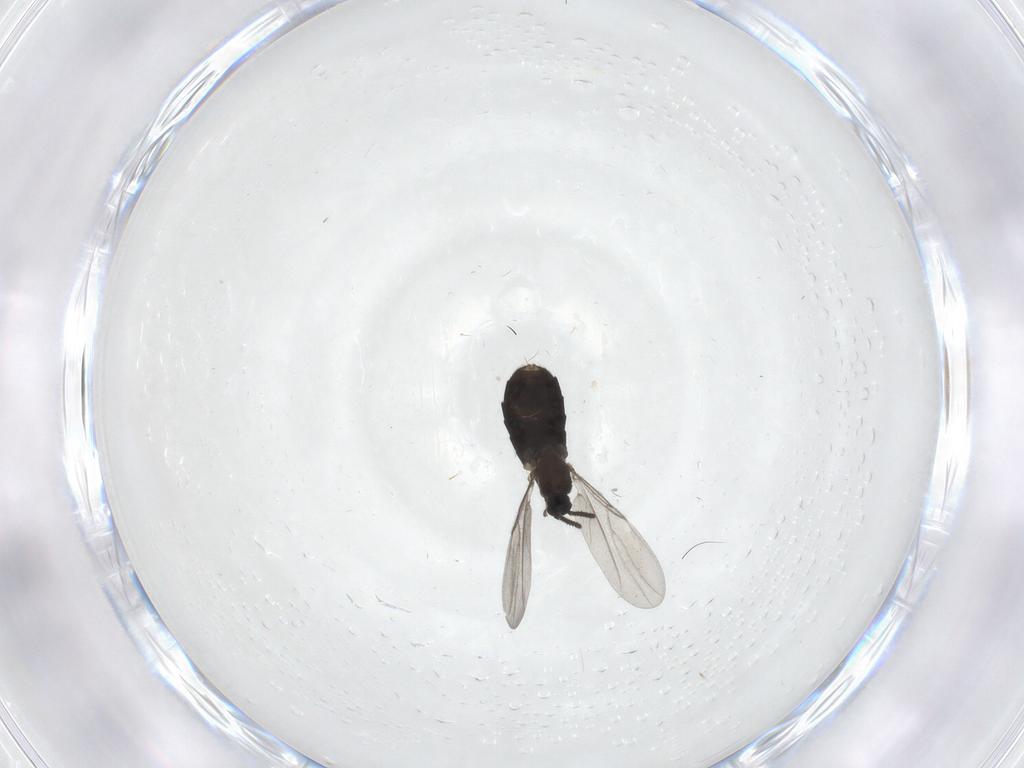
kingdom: Animalia
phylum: Arthropoda
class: Insecta
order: Diptera
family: Scatopsidae
